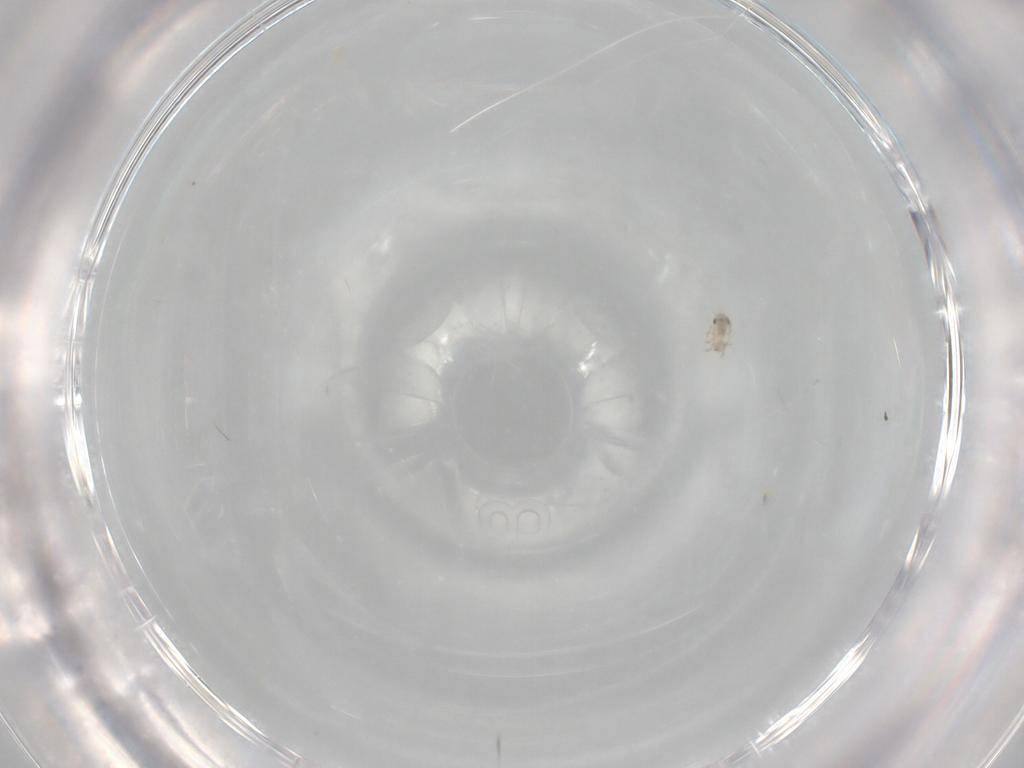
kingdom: Animalia
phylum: Arthropoda
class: Arachnida
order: Sarcoptiformes
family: Ceratozetidae
